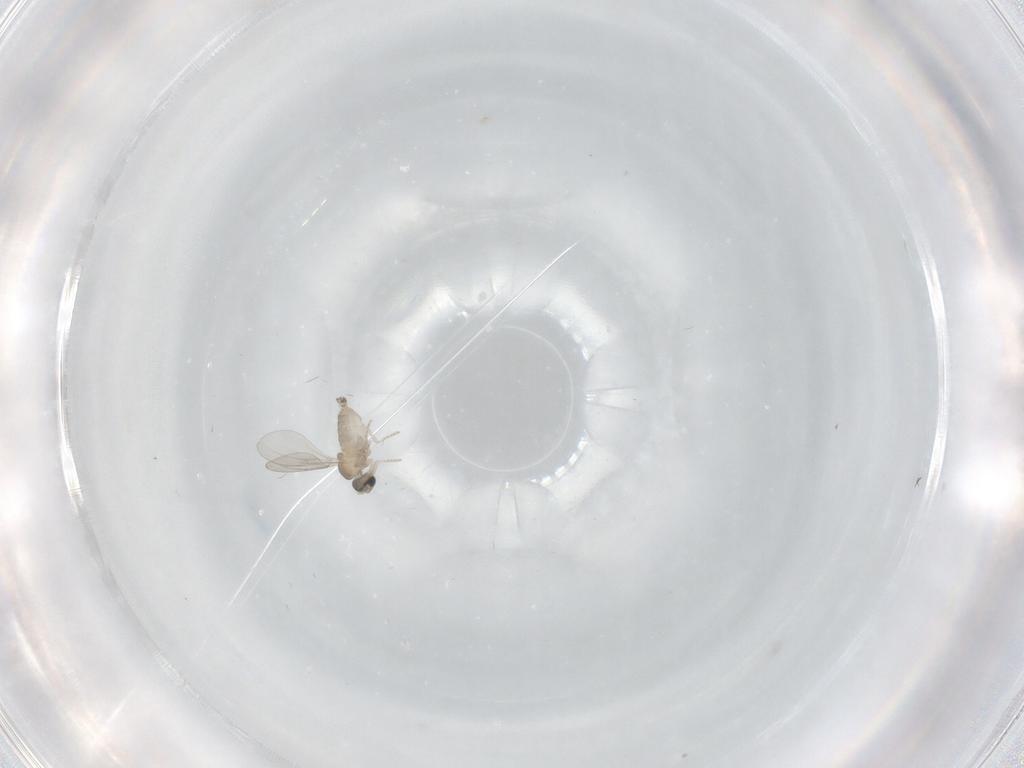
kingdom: Animalia
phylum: Arthropoda
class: Insecta
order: Diptera
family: Cecidomyiidae
